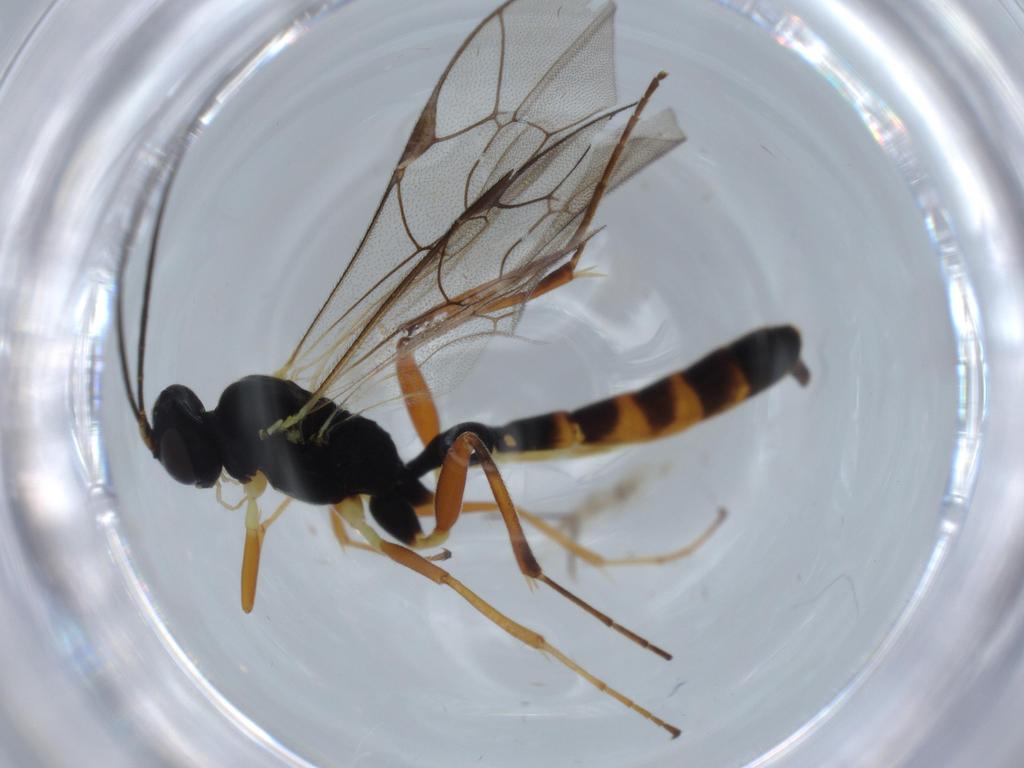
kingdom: Animalia
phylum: Arthropoda
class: Insecta
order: Hymenoptera
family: Ichneumonidae
